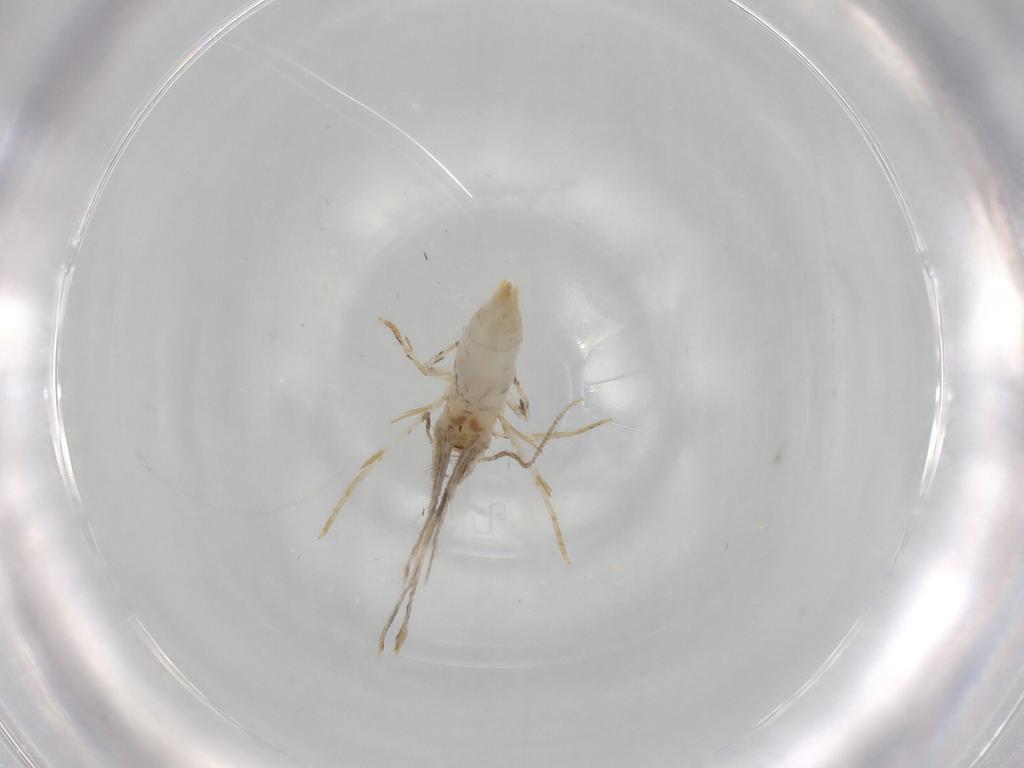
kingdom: Animalia
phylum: Arthropoda
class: Insecta
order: Lepidoptera
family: Tineidae
